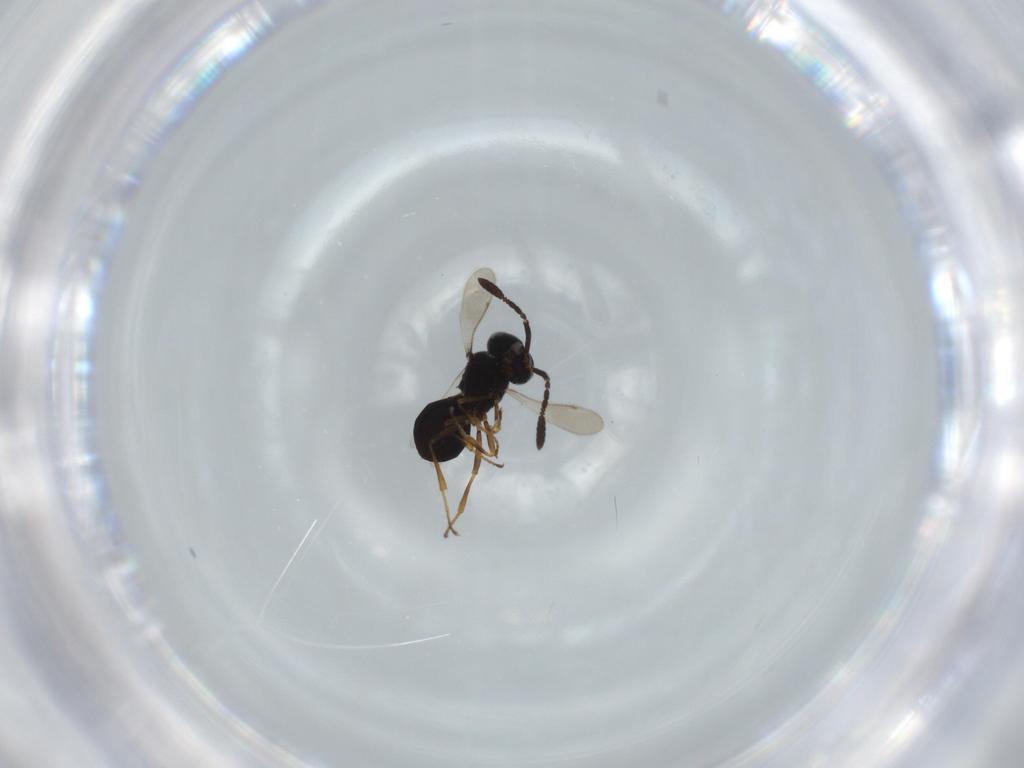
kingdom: Animalia
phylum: Arthropoda
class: Insecta
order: Hymenoptera
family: Scelionidae
